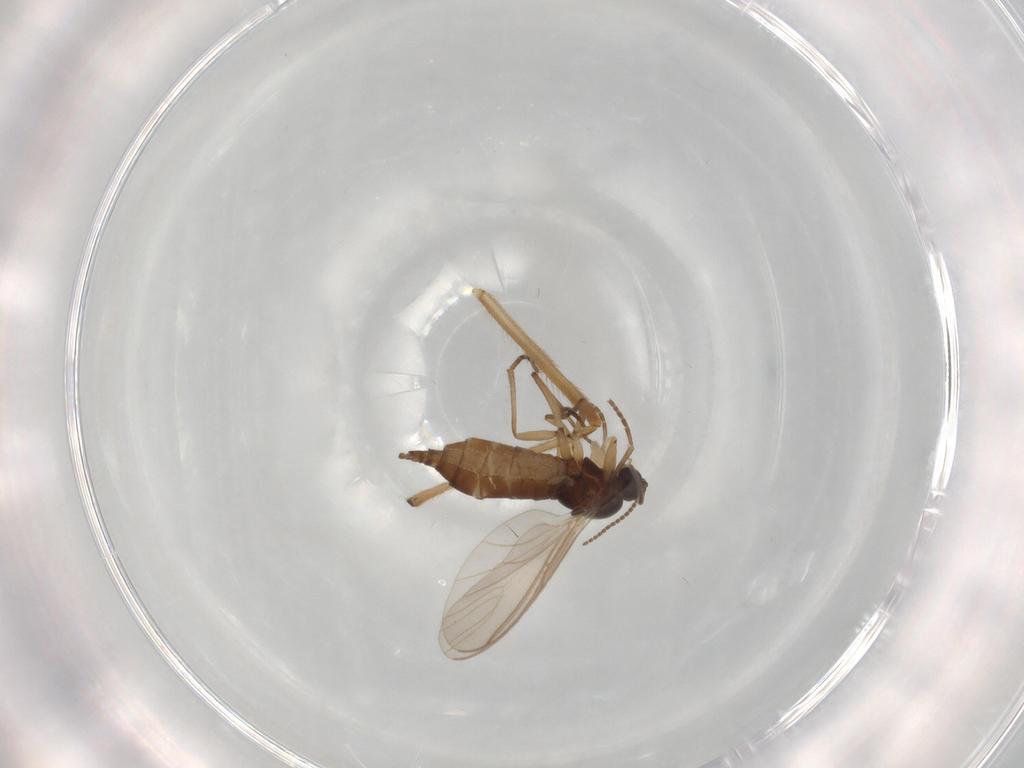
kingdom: Animalia
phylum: Arthropoda
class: Insecta
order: Diptera
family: Sciaridae
